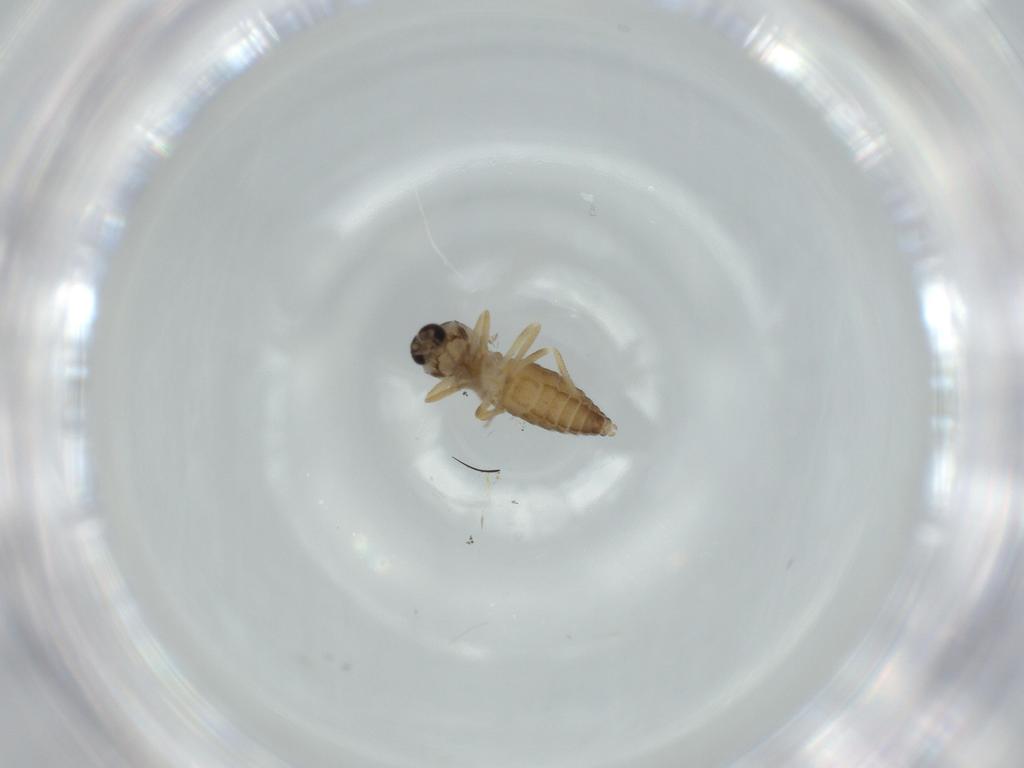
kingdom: Animalia
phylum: Arthropoda
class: Insecta
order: Diptera
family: Ceratopogonidae
